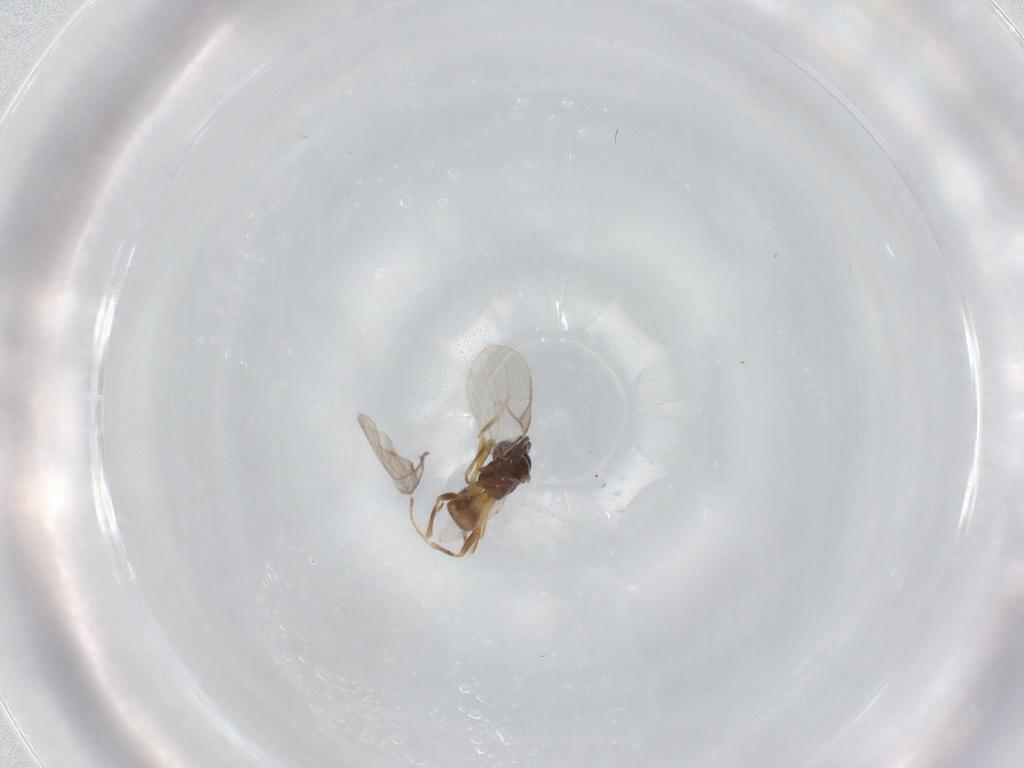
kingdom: Animalia
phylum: Arthropoda
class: Insecta
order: Hymenoptera
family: Braconidae
